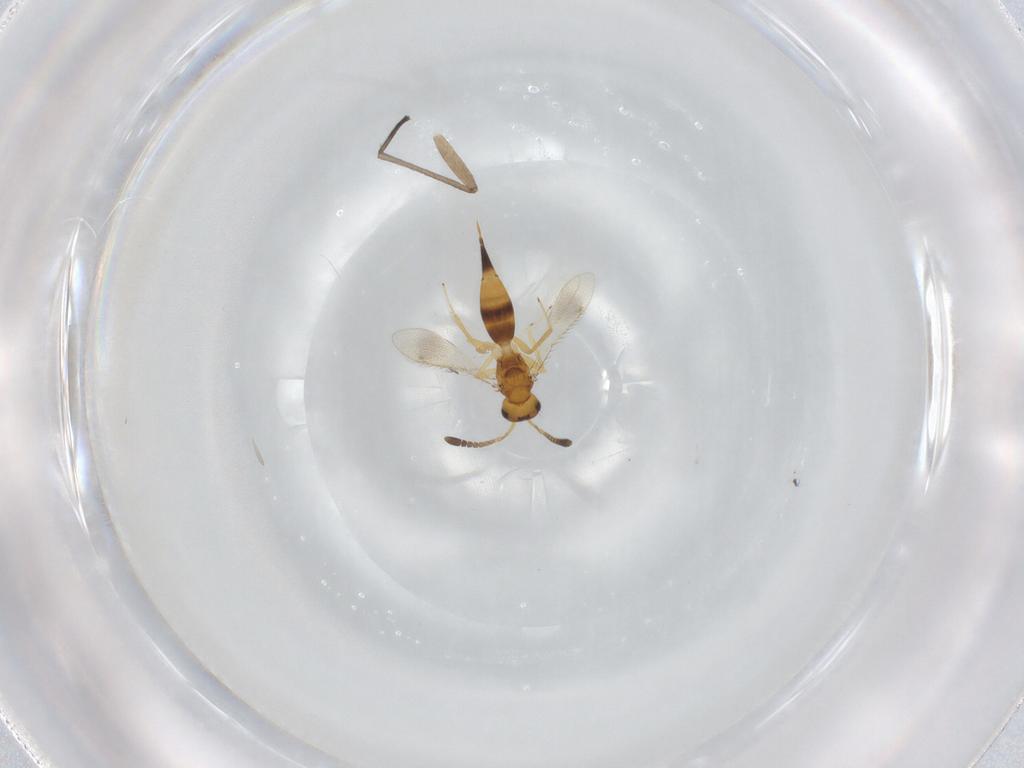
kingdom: Animalia
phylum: Arthropoda
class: Insecta
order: Hymenoptera
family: Diparidae
